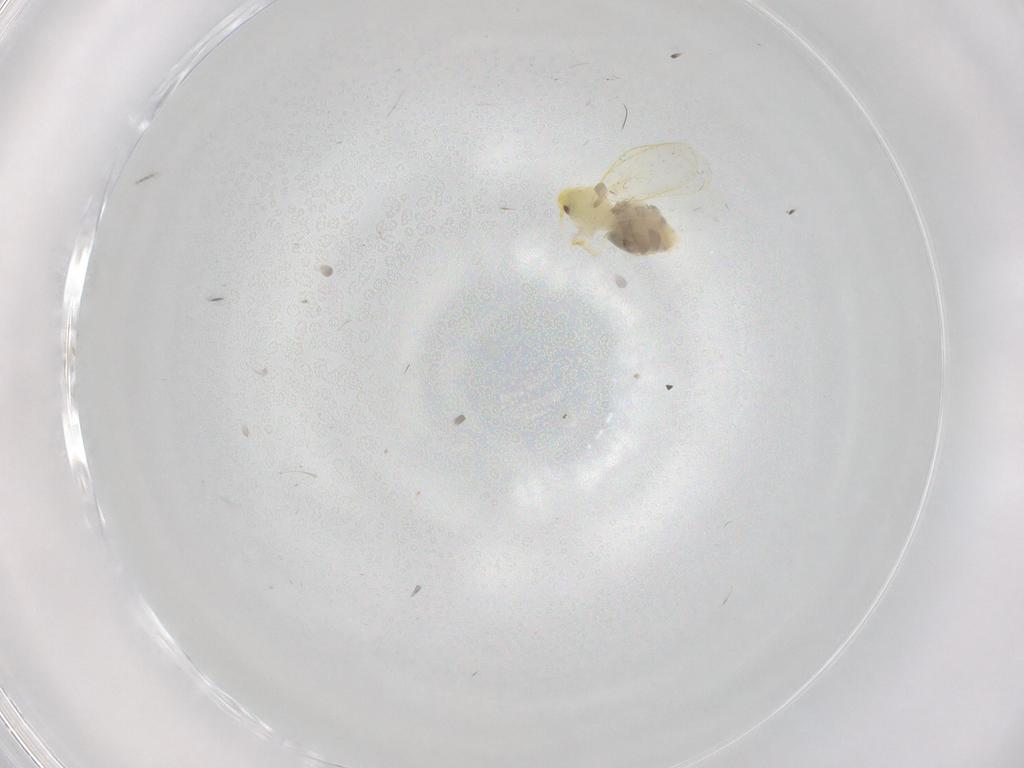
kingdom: Animalia
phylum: Arthropoda
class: Insecta
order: Hemiptera
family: Aleyrodidae
